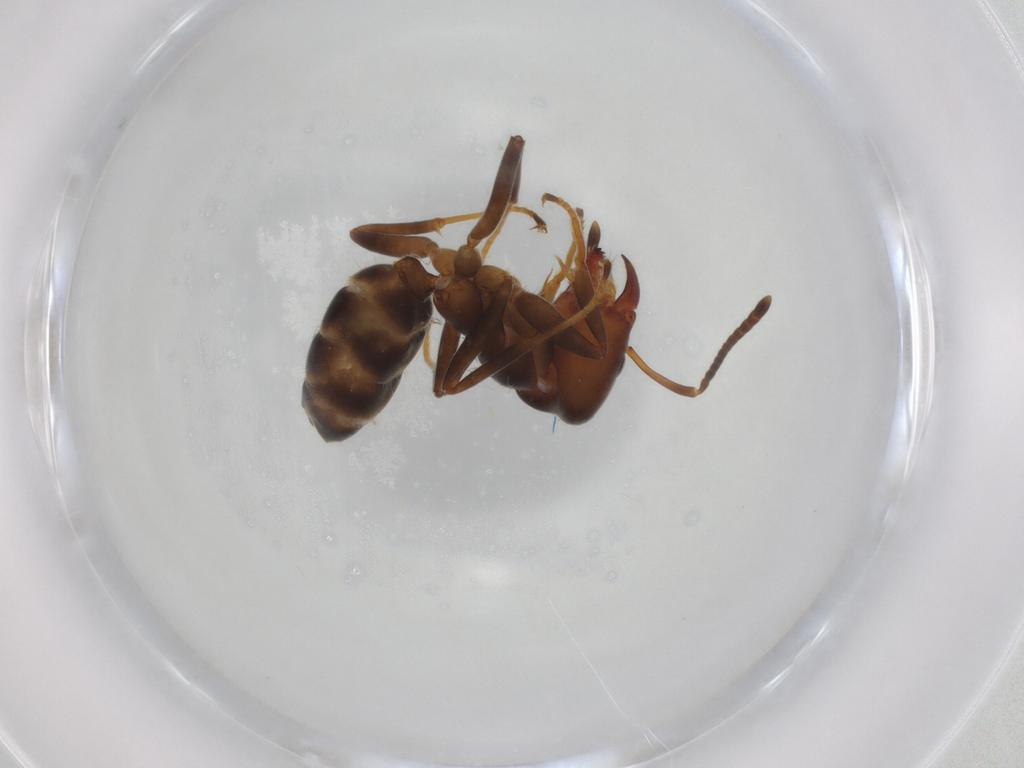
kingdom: Animalia
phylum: Arthropoda
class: Insecta
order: Hymenoptera
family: Formicidae
